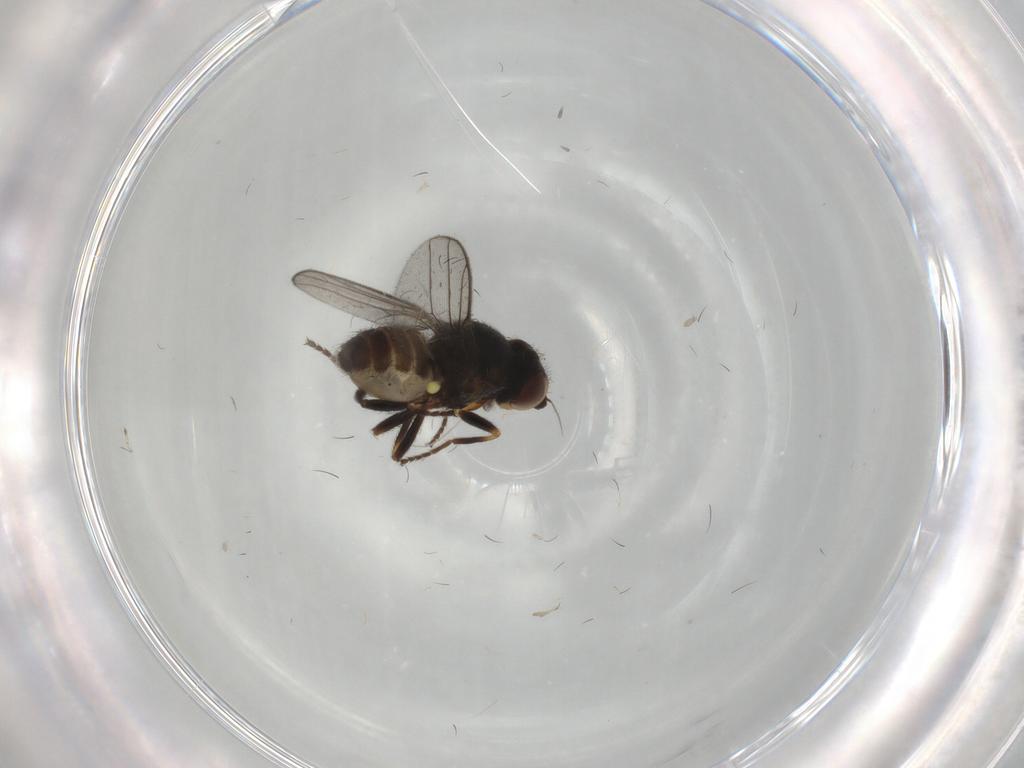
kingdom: Animalia
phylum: Arthropoda
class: Insecta
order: Diptera
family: Chloropidae
